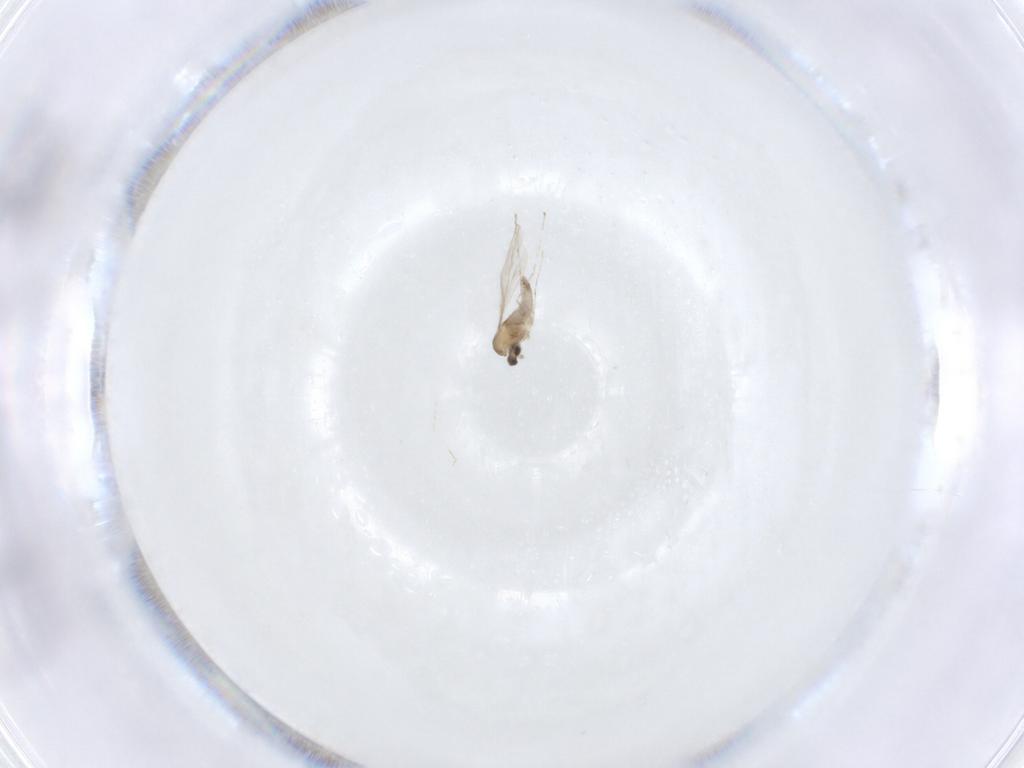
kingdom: Animalia
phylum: Arthropoda
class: Insecta
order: Diptera
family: Cecidomyiidae
